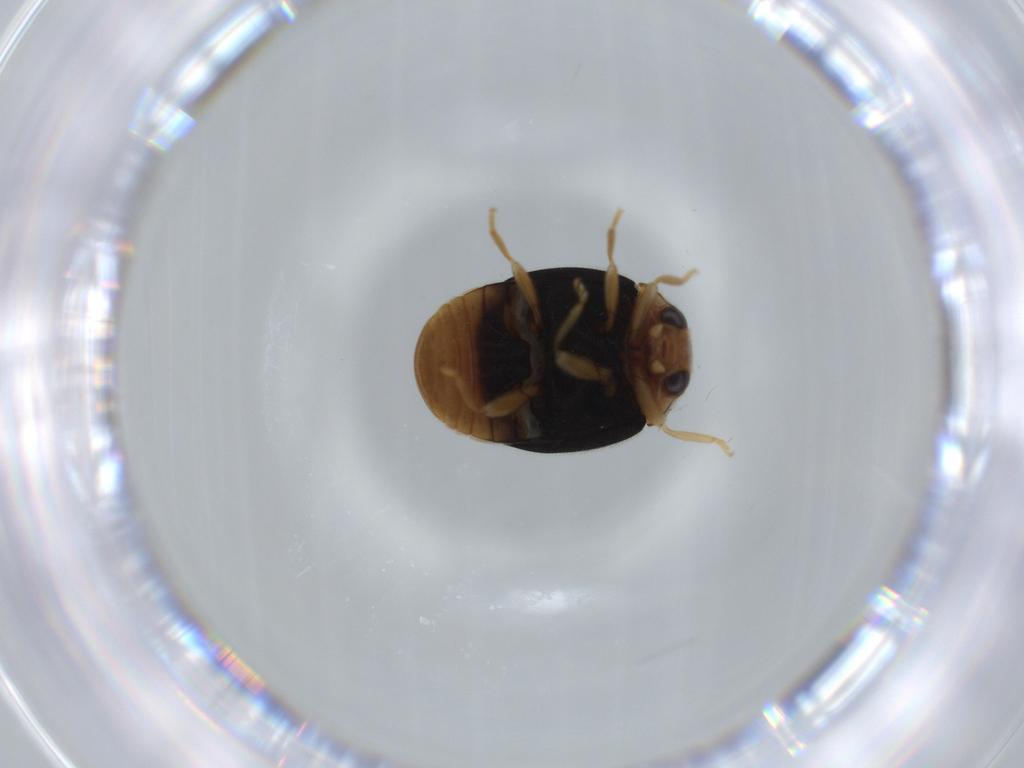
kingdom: Animalia
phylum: Arthropoda
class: Insecta
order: Coleoptera
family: Coccinellidae
